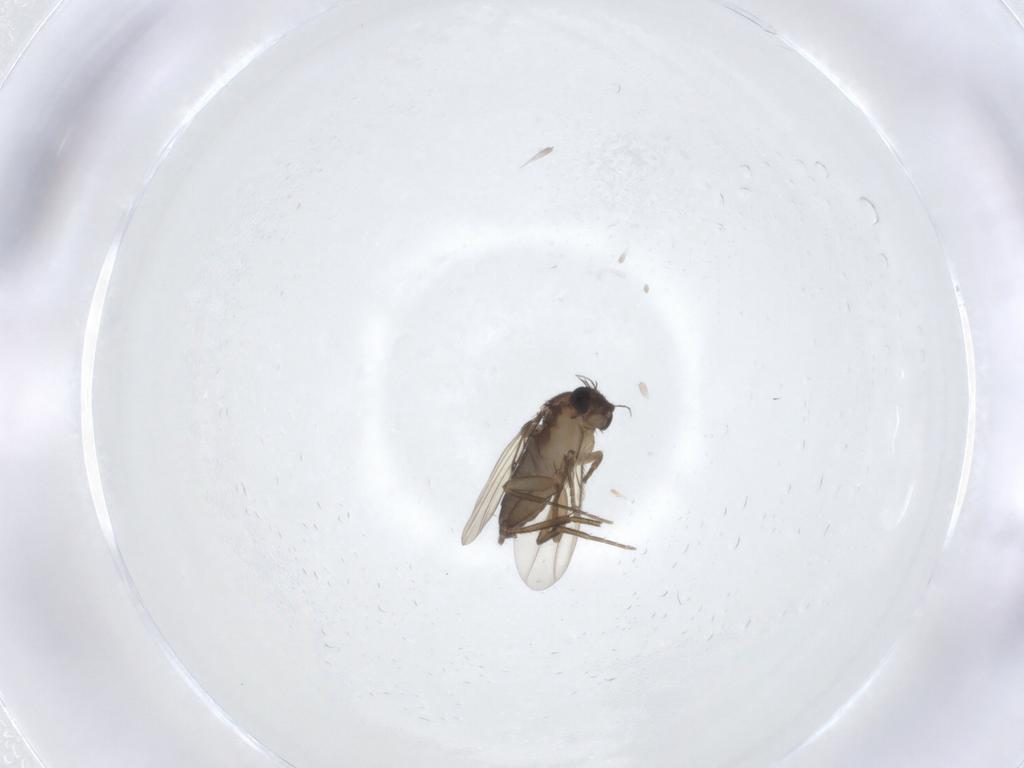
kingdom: Animalia
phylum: Arthropoda
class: Insecta
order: Diptera
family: Phoridae
